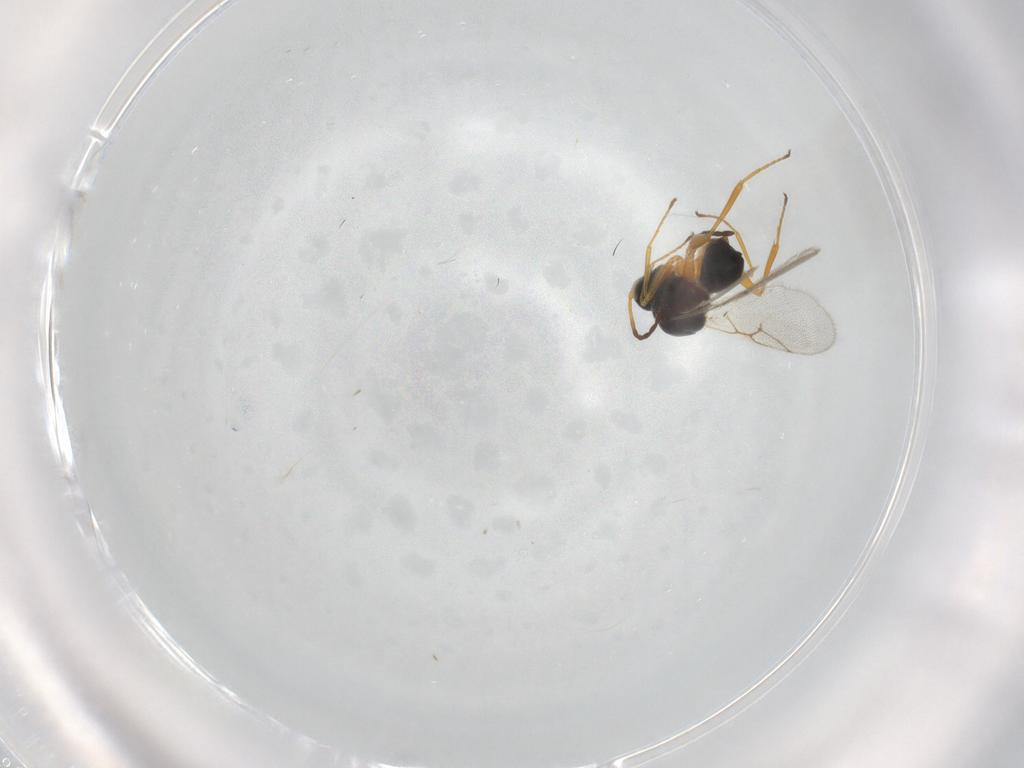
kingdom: Animalia
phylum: Arthropoda
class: Insecta
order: Hymenoptera
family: Figitidae
